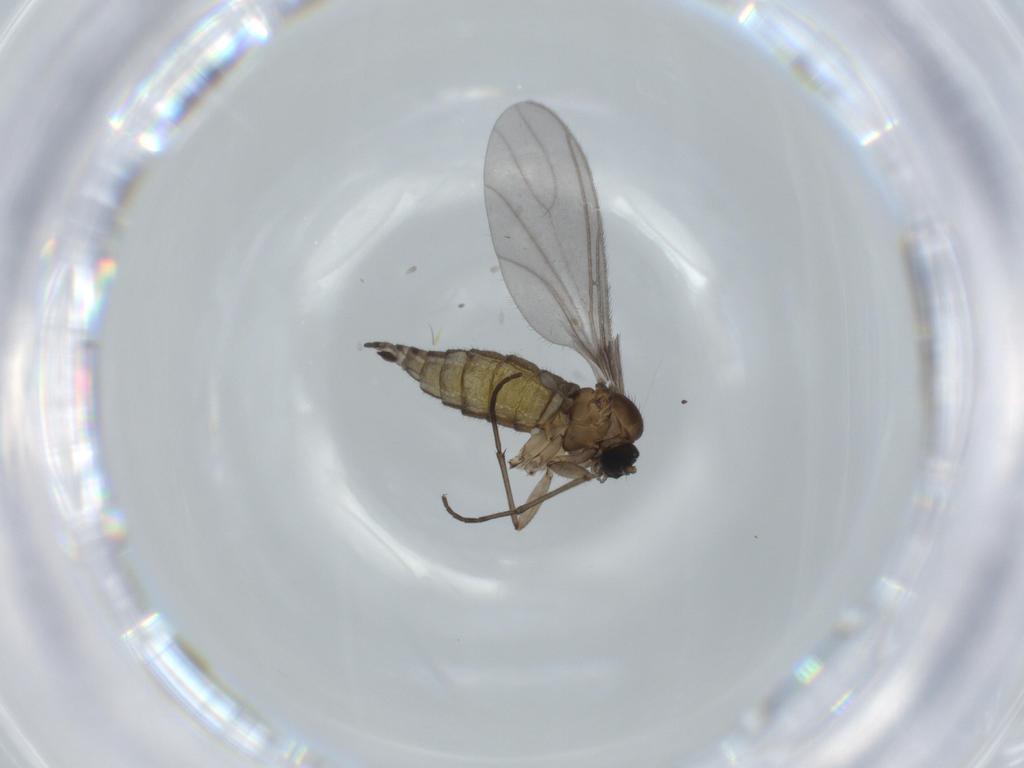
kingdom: Animalia
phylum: Arthropoda
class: Insecta
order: Diptera
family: Sciaridae
